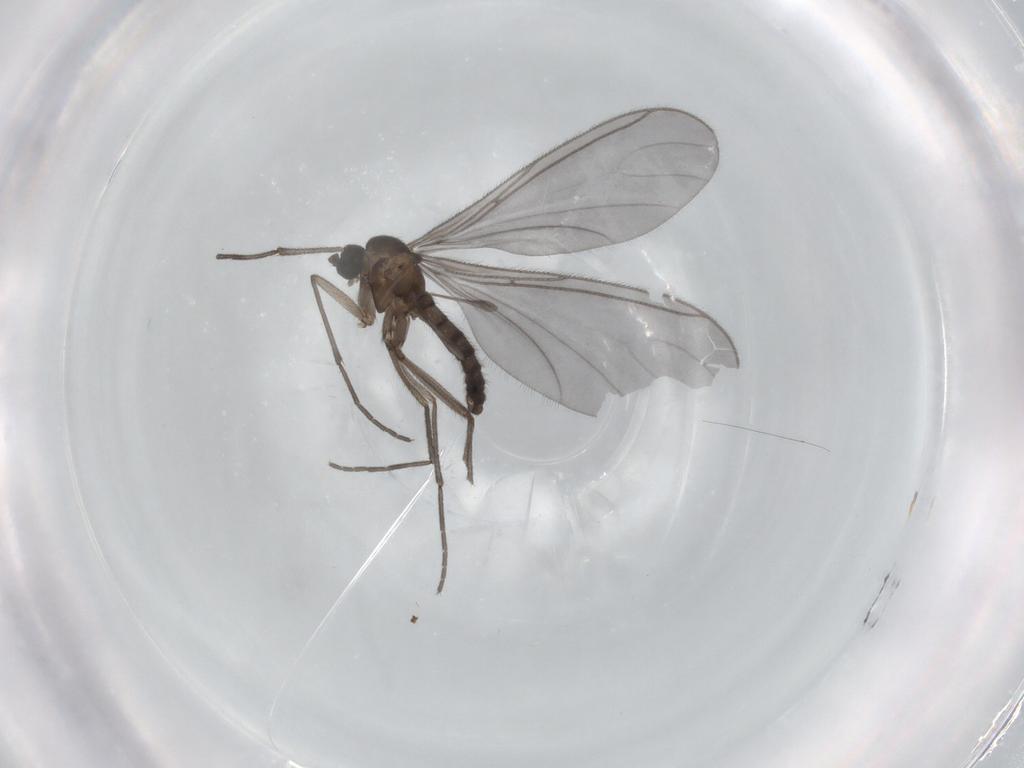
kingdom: Animalia
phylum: Arthropoda
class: Insecta
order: Diptera
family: Sciaridae
